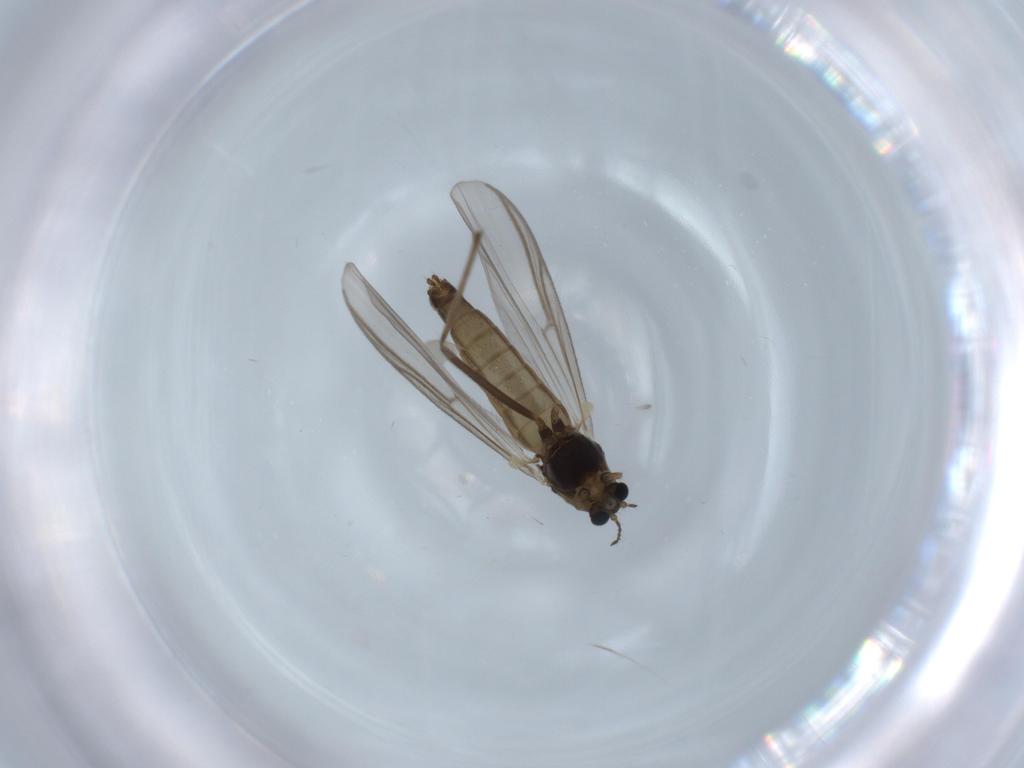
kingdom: Animalia
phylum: Arthropoda
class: Insecta
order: Diptera
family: Chironomidae
